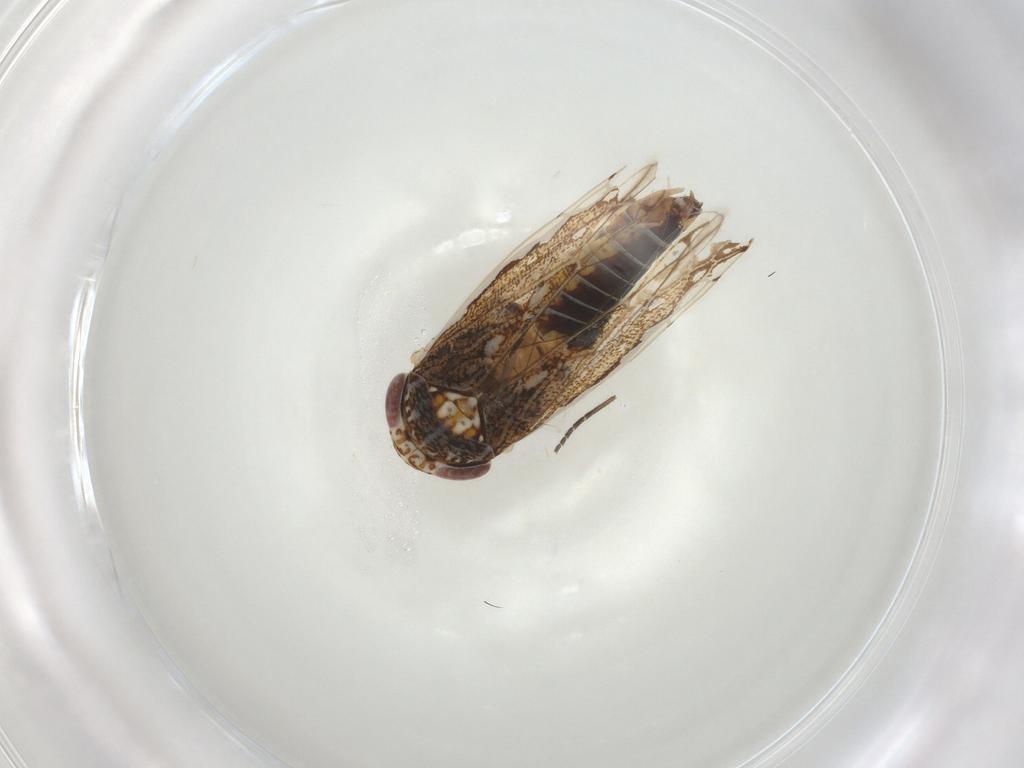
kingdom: Animalia
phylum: Arthropoda
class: Insecta
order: Hemiptera
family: Cicadellidae
